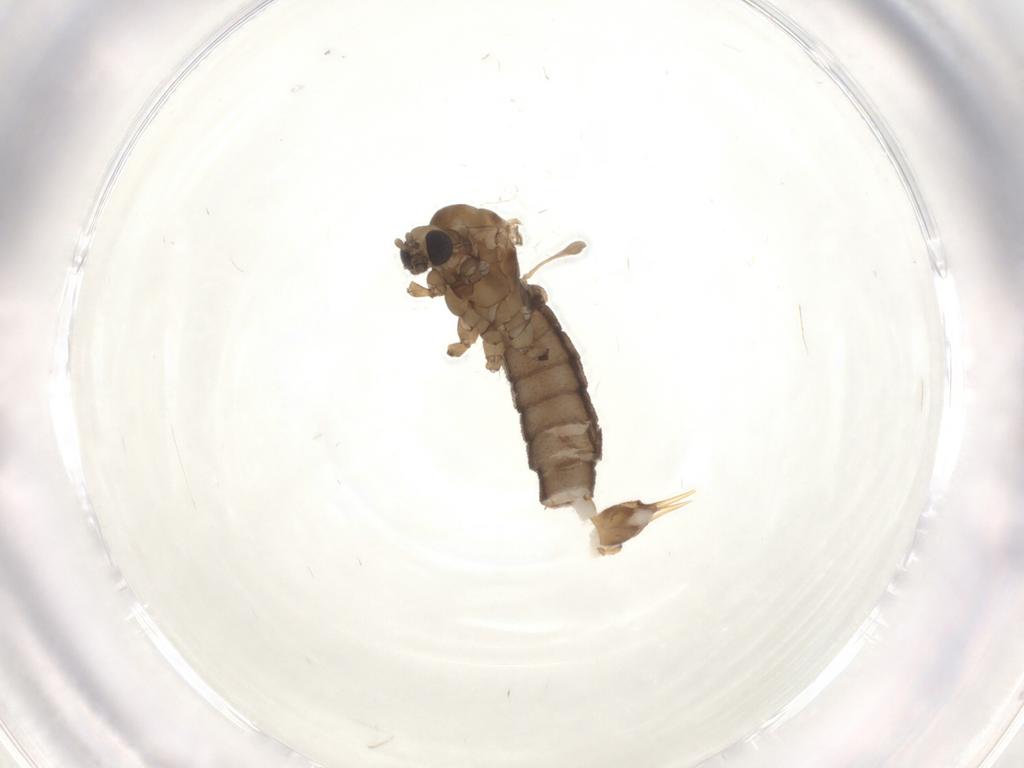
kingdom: Animalia
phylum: Arthropoda
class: Insecta
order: Diptera
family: Limoniidae
